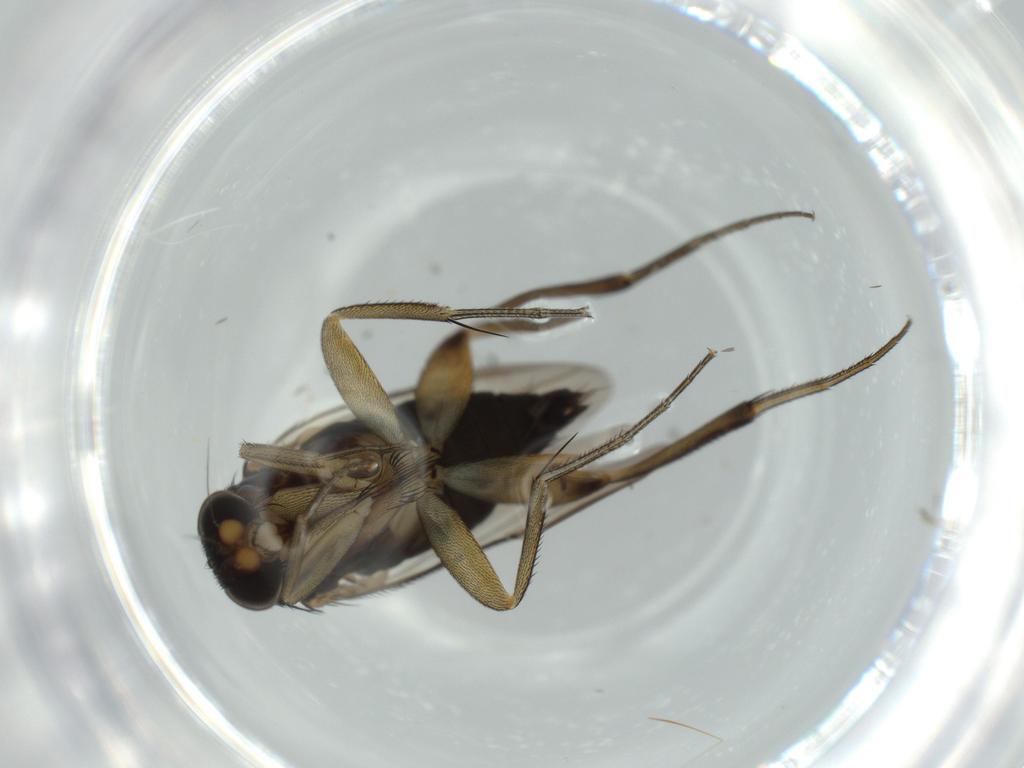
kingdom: Animalia
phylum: Arthropoda
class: Insecta
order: Diptera
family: Phoridae
